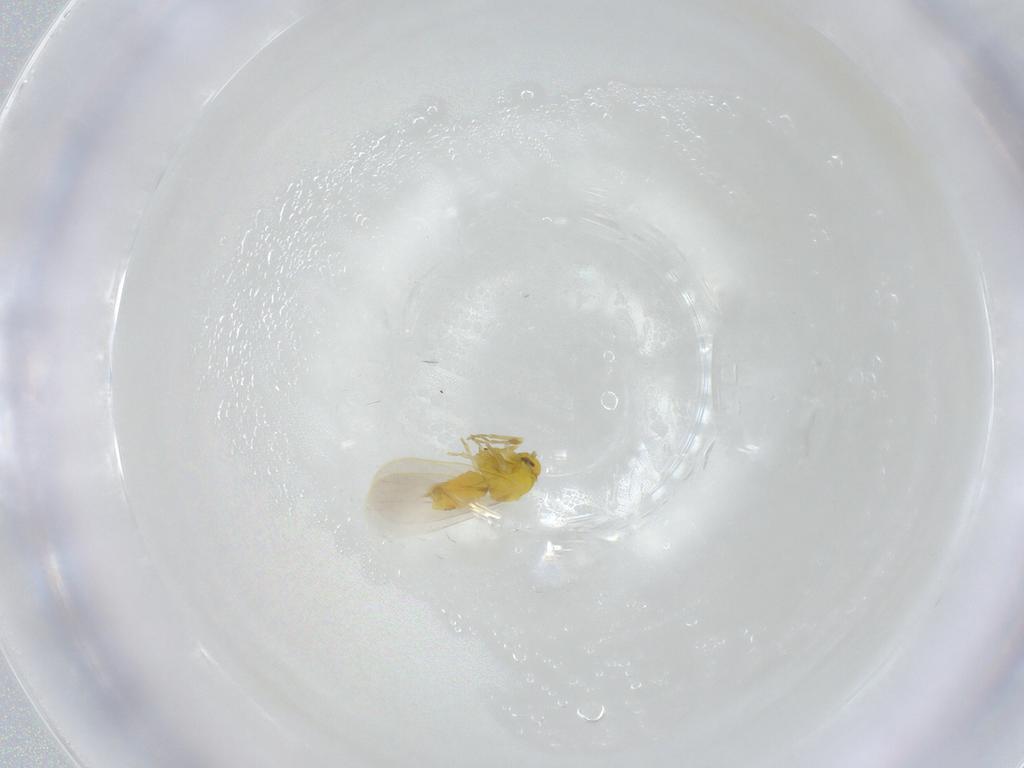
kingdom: Animalia
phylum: Arthropoda
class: Insecta
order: Hemiptera
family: Aleyrodidae
